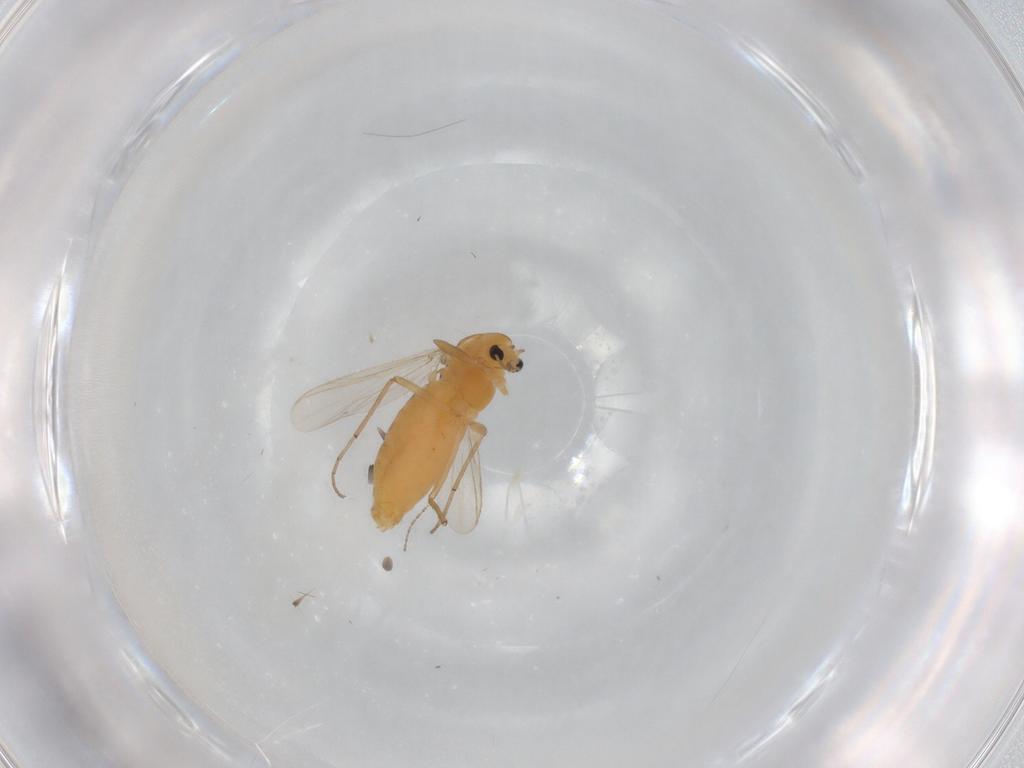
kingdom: Animalia
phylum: Arthropoda
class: Insecta
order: Diptera
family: Cecidomyiidae
